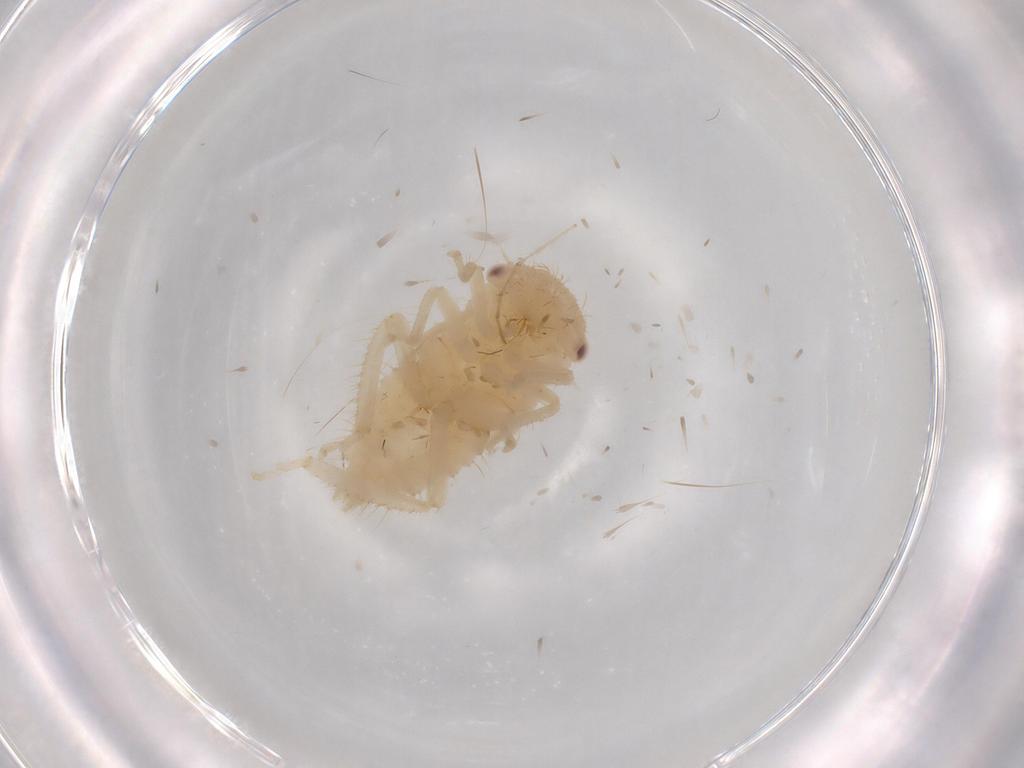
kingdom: Animalia
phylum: Arthropoda
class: Insecta
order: Hemiptera
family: Cicadellidae
